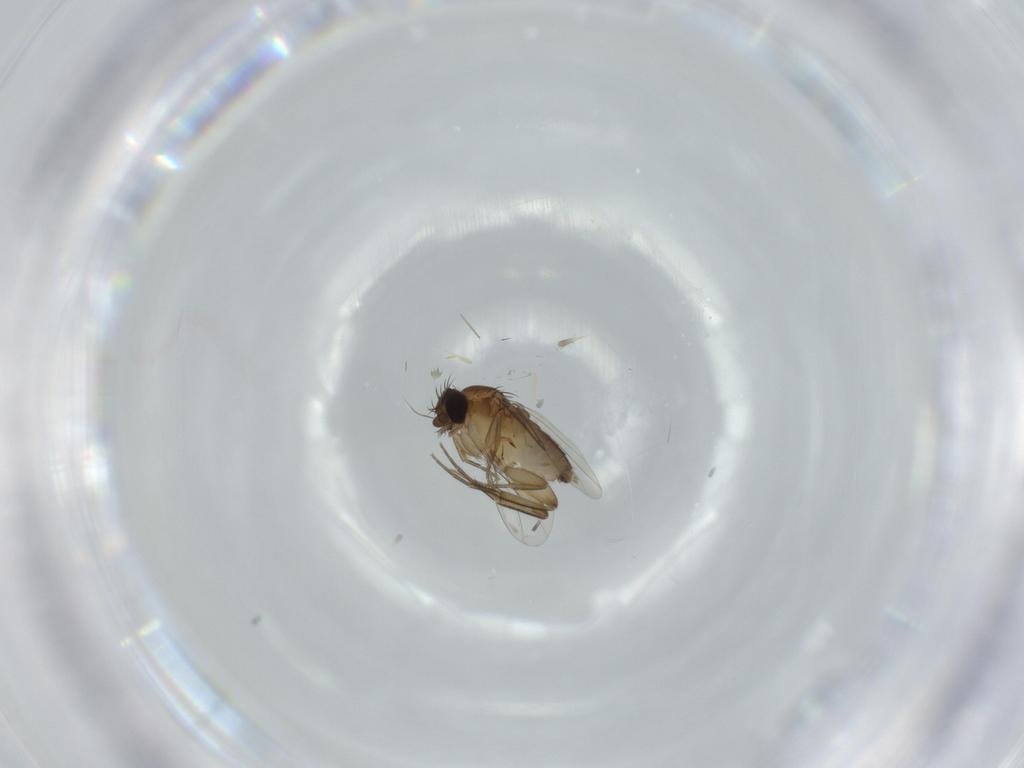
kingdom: Animalia
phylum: Arthropoda
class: Insecta
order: Diptera
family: Phoridae
